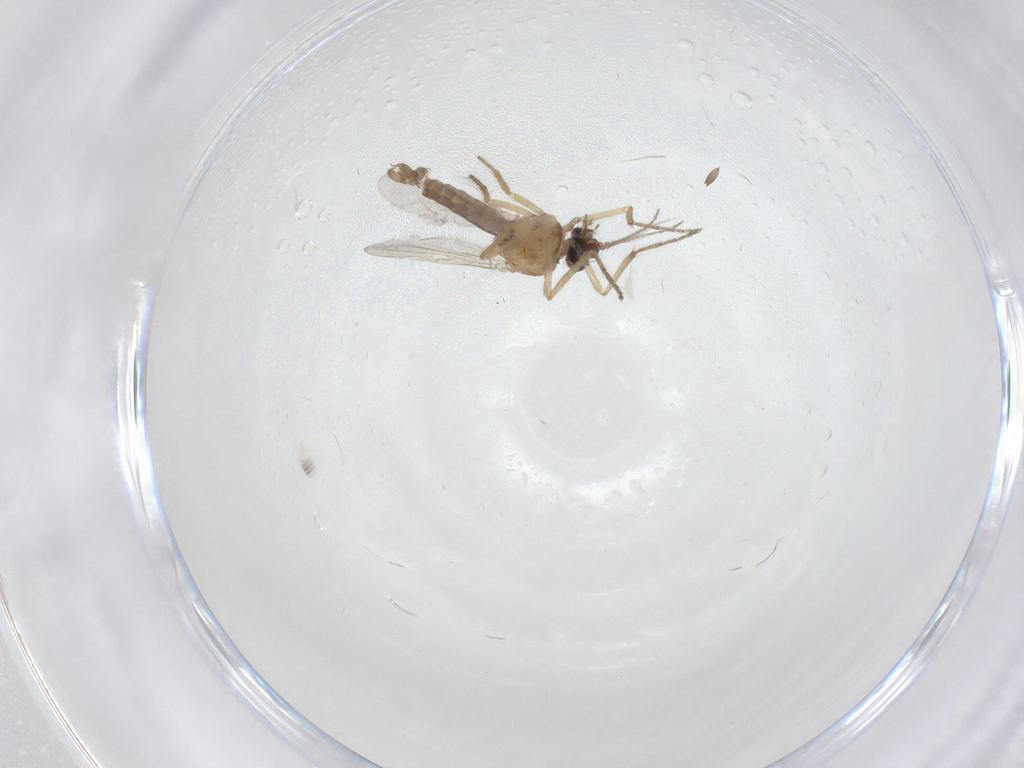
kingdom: Animalia
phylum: Arthropoda
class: Insecta
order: Diptera
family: Ceratopogonidae
